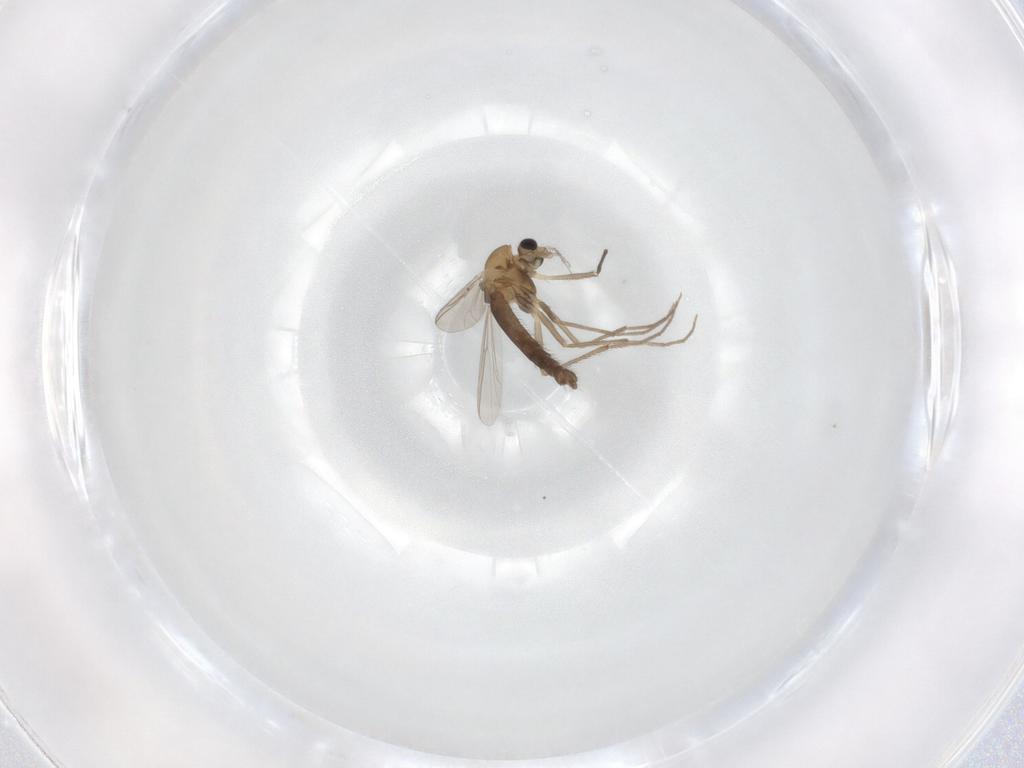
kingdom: Animalia
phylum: Arthropoda
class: Insecta
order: Diptera
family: Chironomidae
